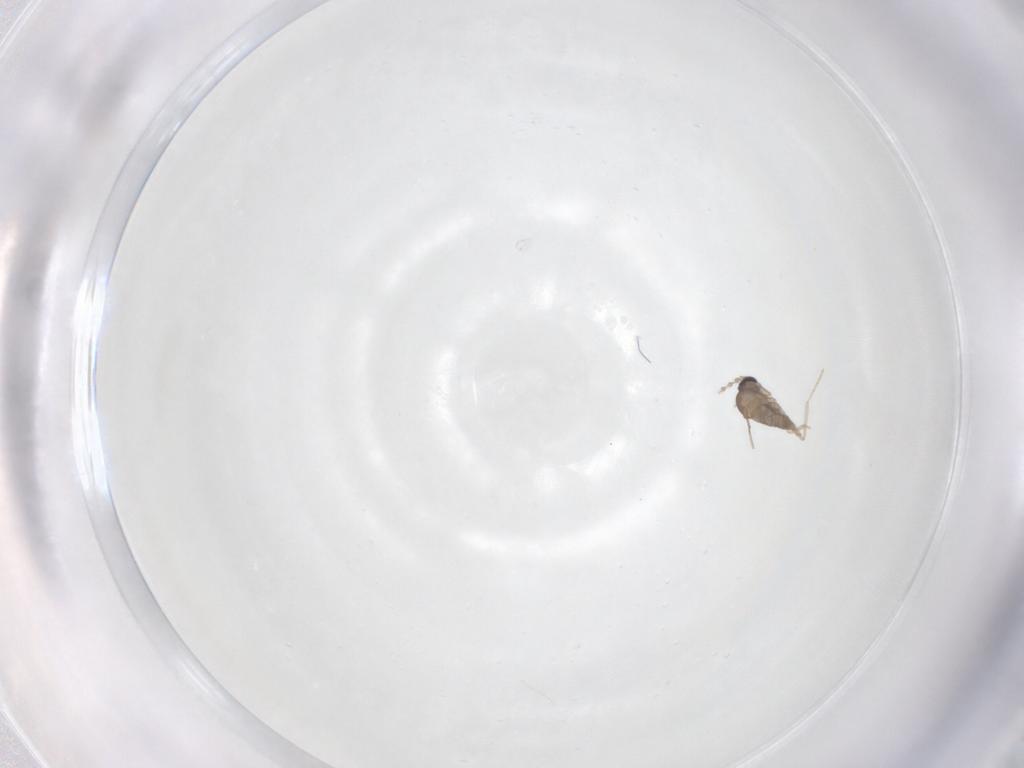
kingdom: Animalia
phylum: Arthropoda
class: Insecta
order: Diptera
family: Cecidomyiidae
